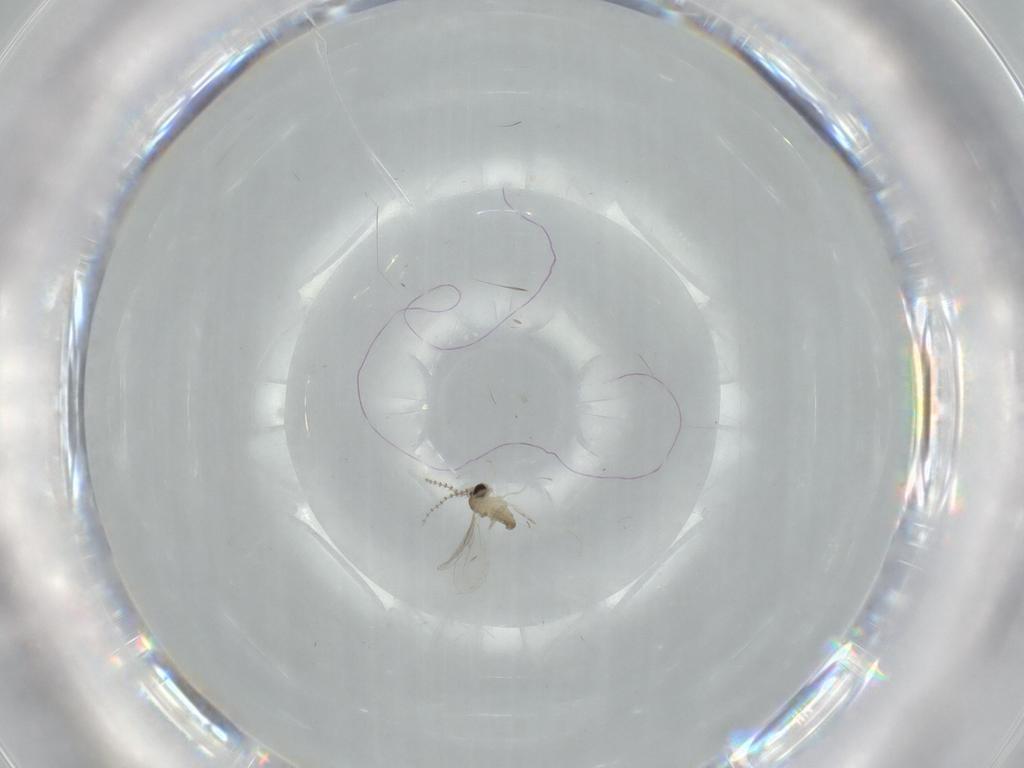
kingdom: Animalia
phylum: Arthropoda
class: Insecta
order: Diptera
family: Cecidomyiidae
